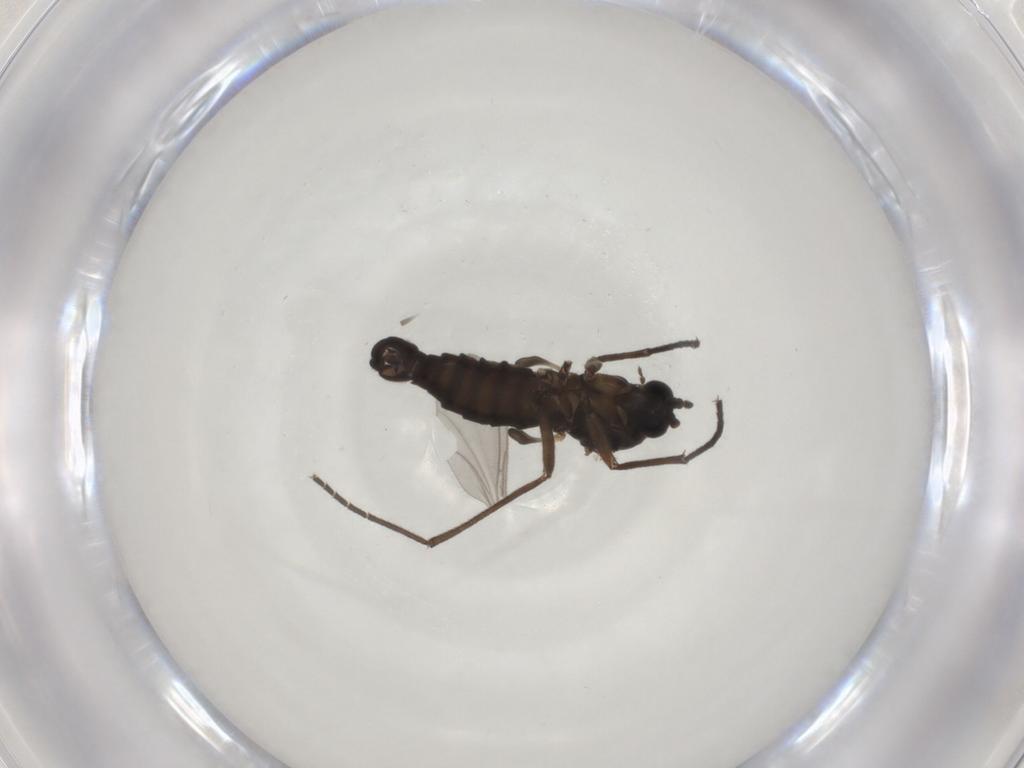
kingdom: Animalia
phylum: Arthropoda
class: Insecta
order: Diptera
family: Sciaridae
